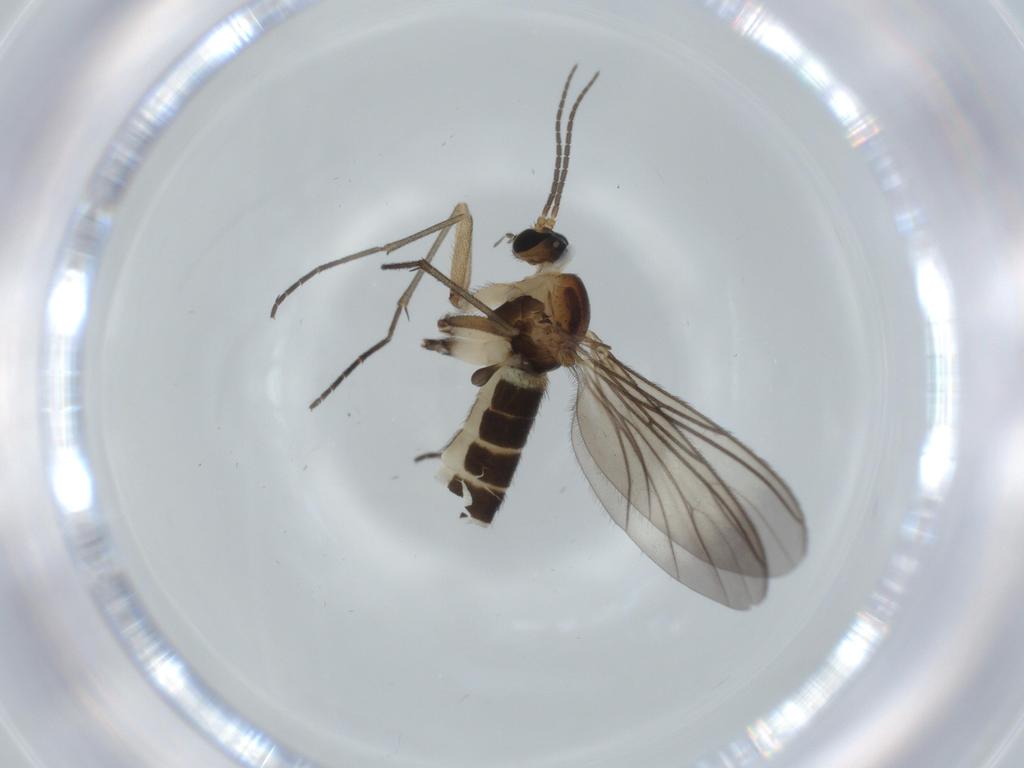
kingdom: Animalia
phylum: Arthropoda
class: Insecta
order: Diptera
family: Sciaridae
